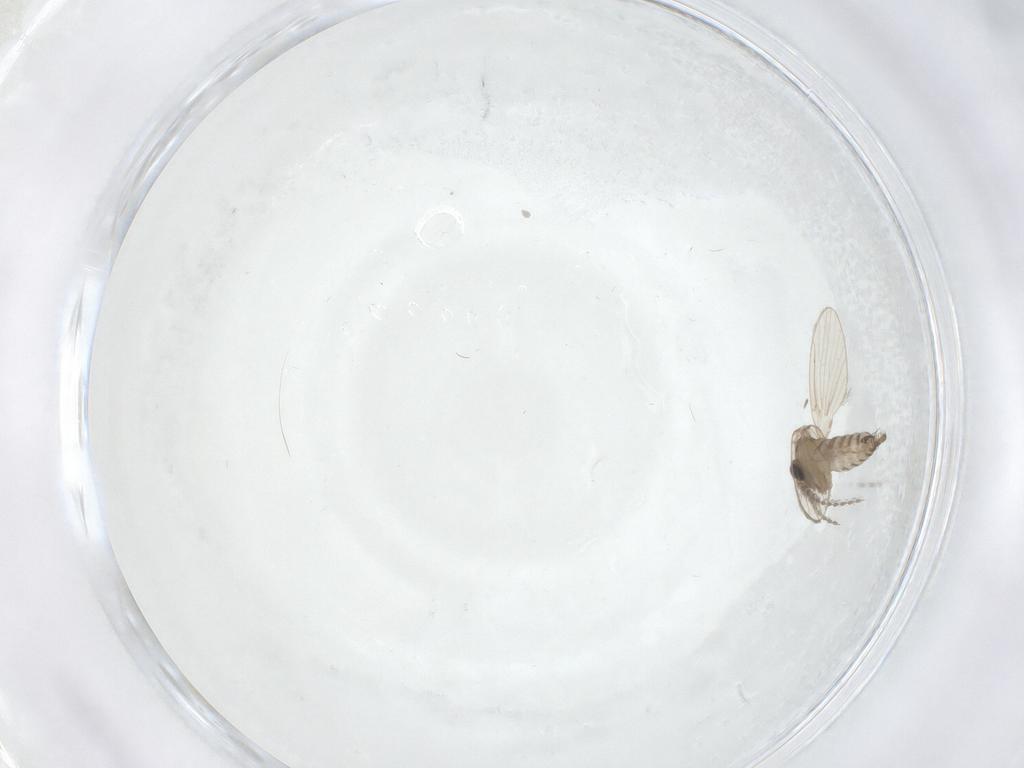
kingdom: Animalia
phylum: Arthropoda
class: Insecta
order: Diptera
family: Limoniidae
